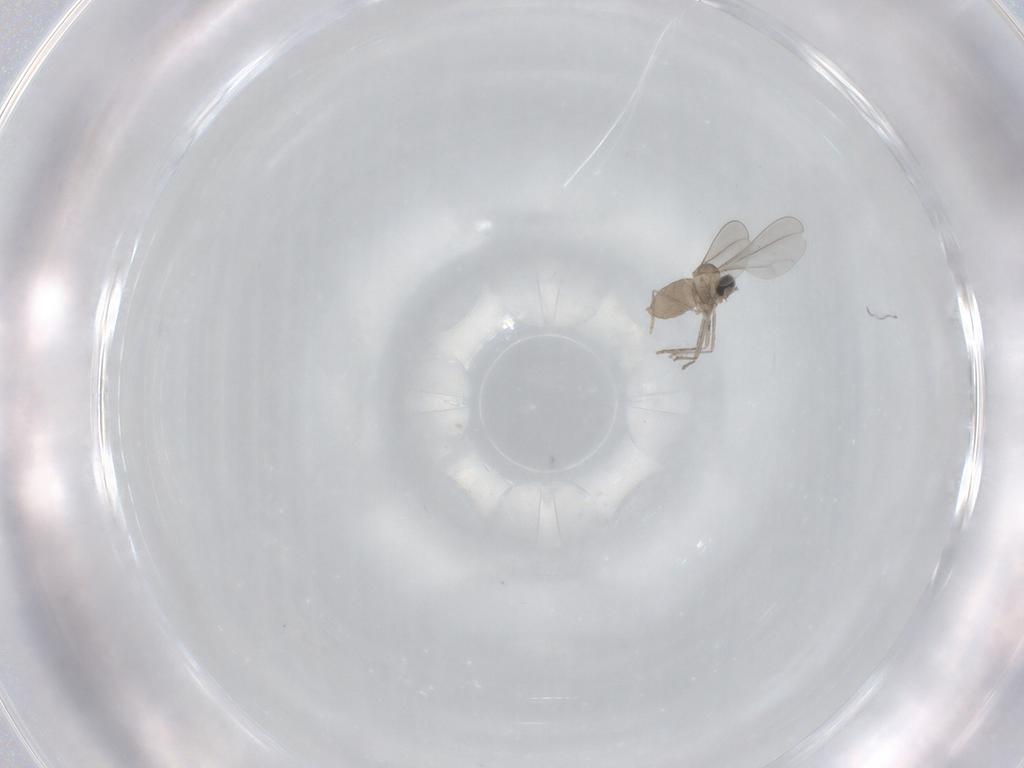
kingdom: Animalia
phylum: Arthropoda
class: Insecta
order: Diptera
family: Cecidomyiidae
